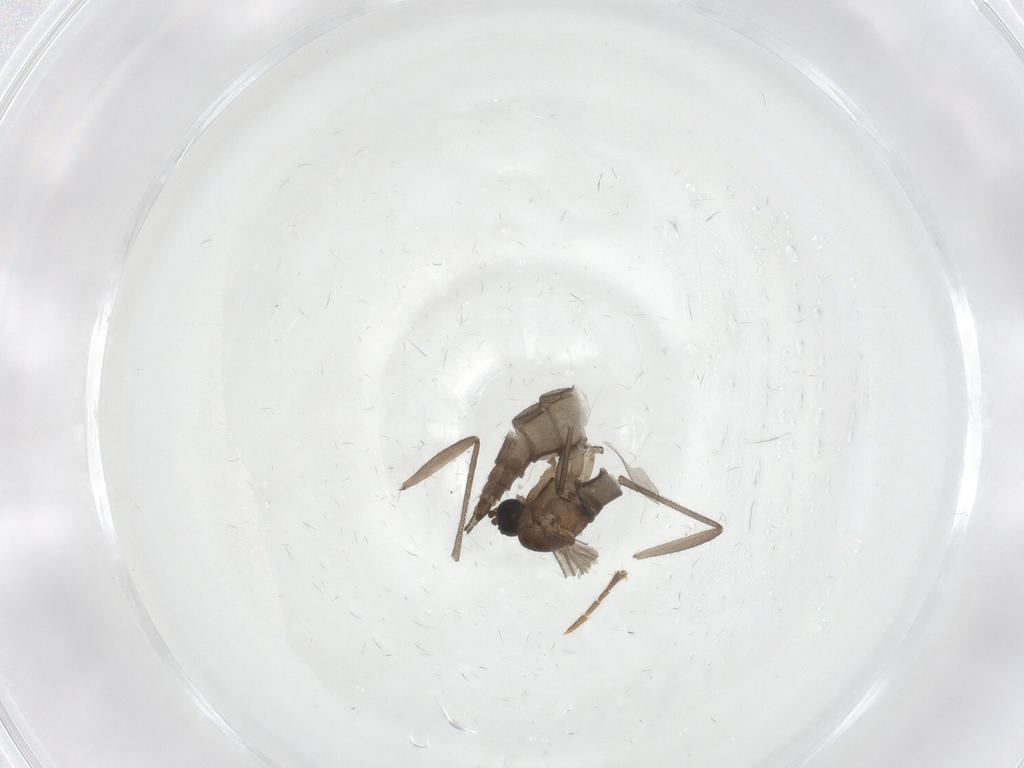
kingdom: Animalia
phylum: Arthropoda
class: Insecta
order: Diptera
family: Sciaridae
